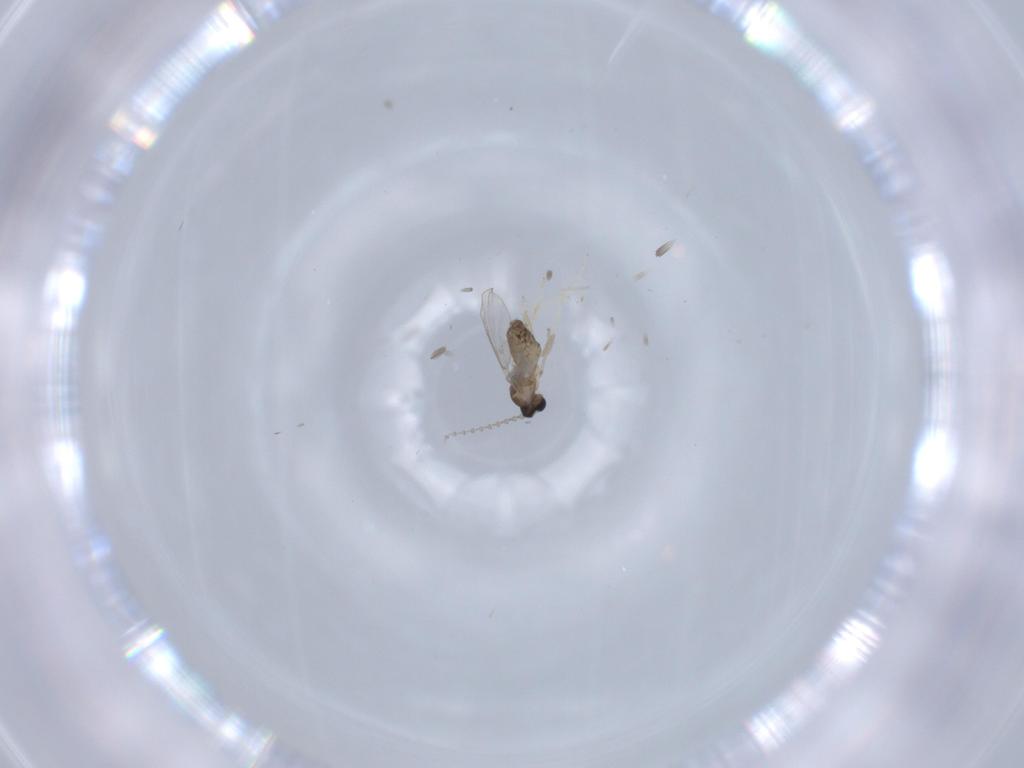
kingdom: Animalia
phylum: Arthropoda
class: Insecta
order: Diptera
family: Cecidomyiidae
